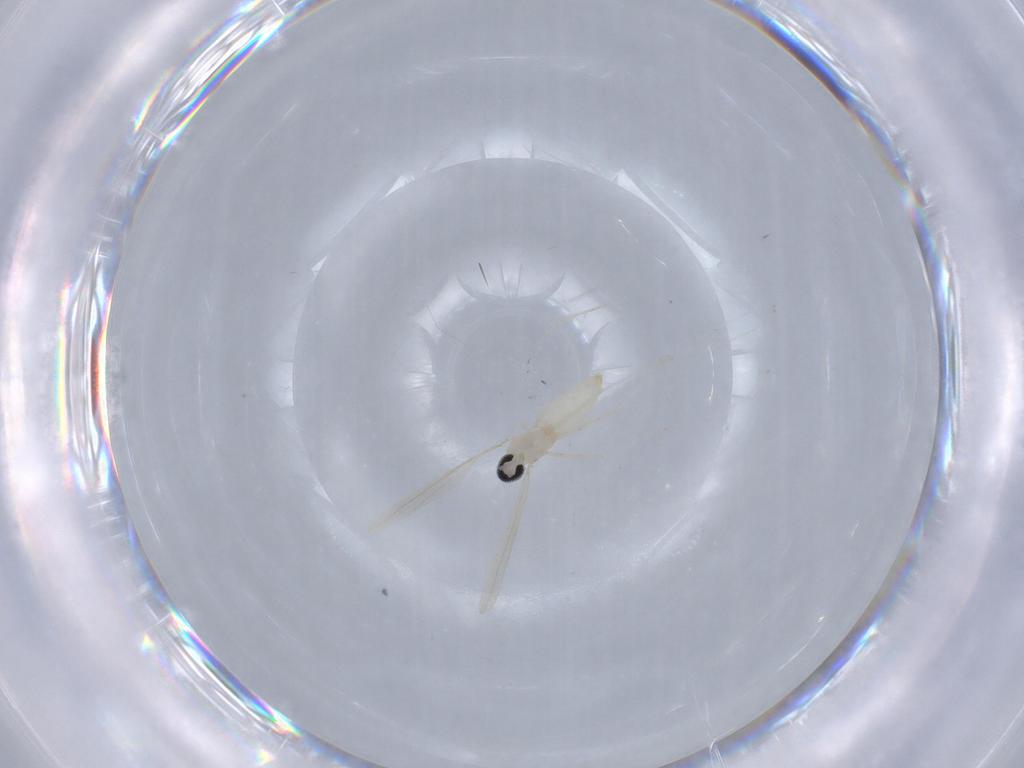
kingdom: Animalia
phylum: Arthropoda
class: Insecta
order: Diptera
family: Cecidomyiidae
